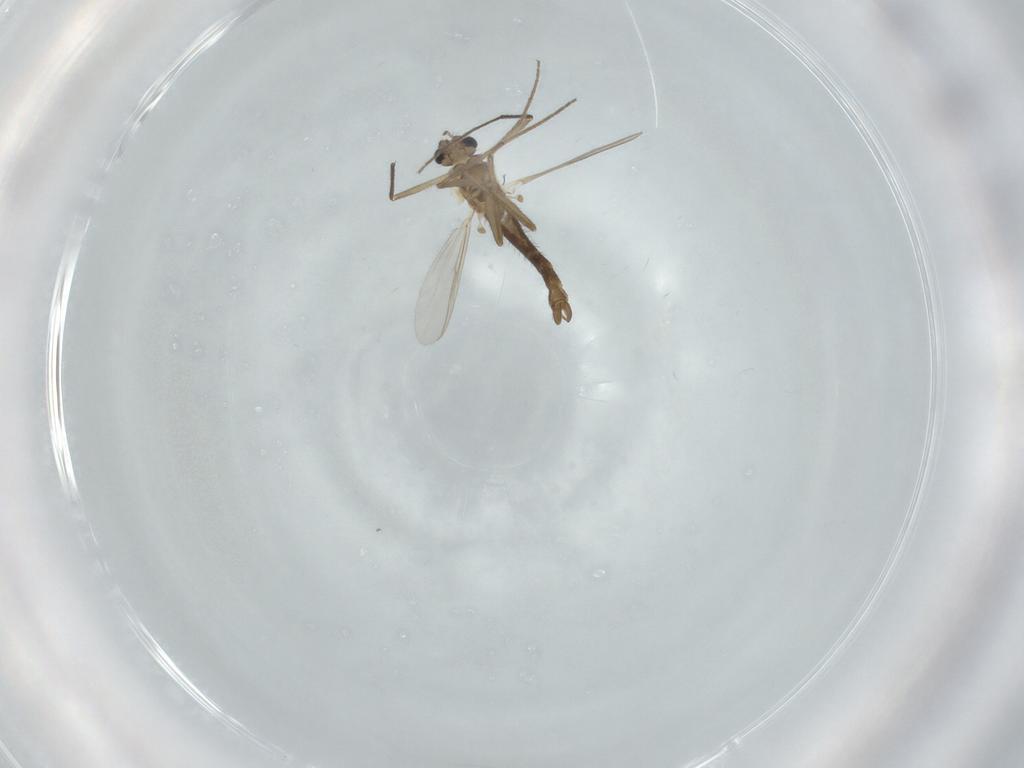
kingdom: Animalia
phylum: Arthropoda
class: Insecta
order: Diptera
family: Chironomidae
